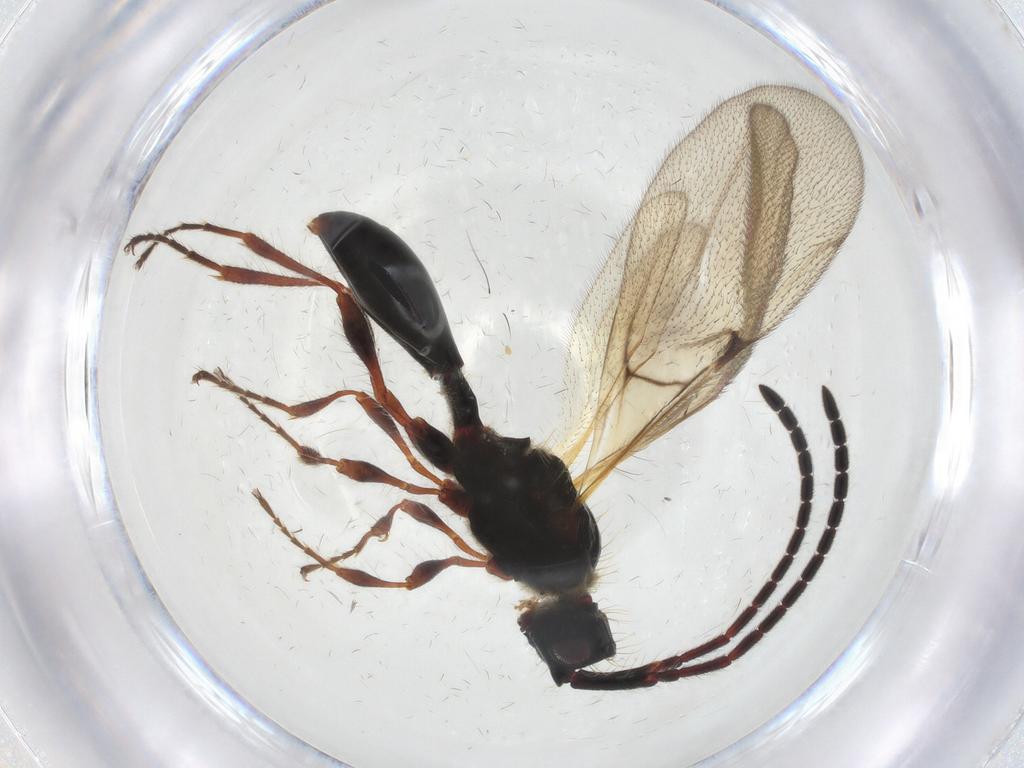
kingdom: Animalia
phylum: Arthropoda
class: Insecta
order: Hymenoptera
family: Diapriidae
